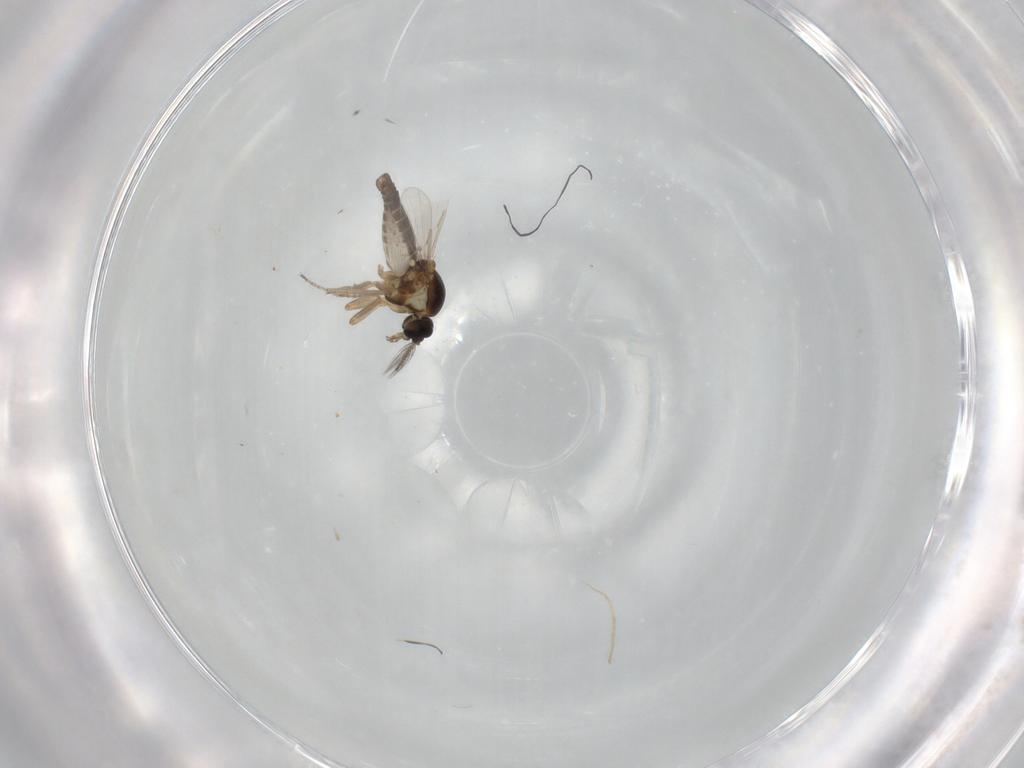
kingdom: Animalia
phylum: Arthropoda
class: Insecta
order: Diptera
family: Ceratopogonidae
